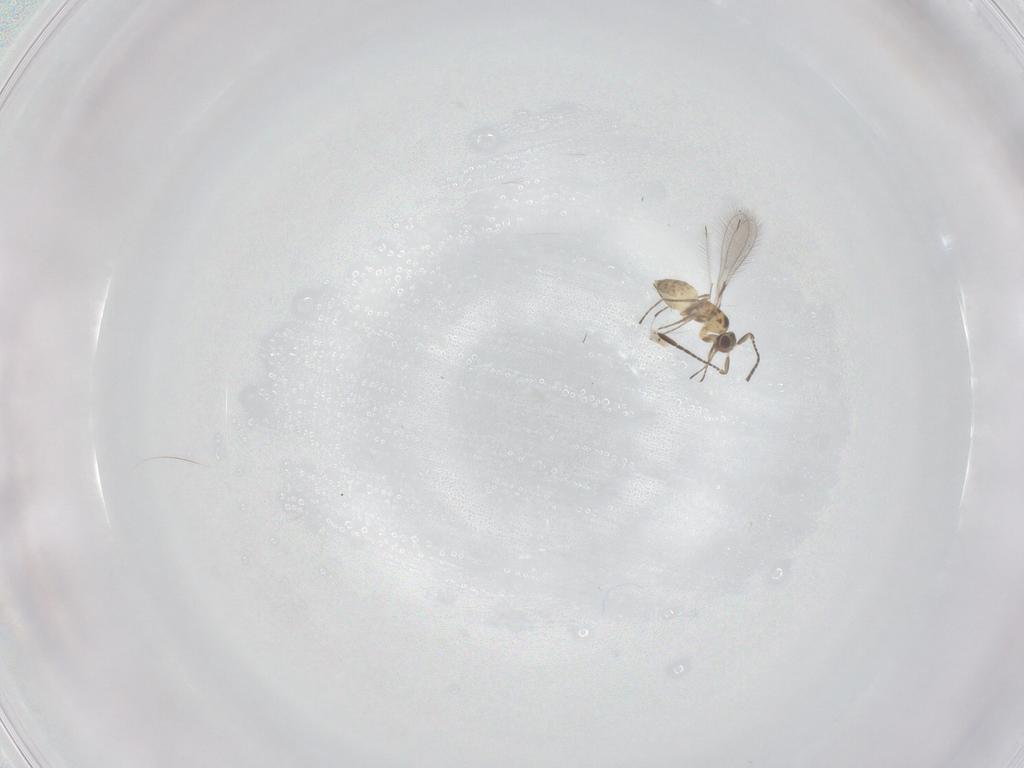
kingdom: Animalia
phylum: Arthropoda
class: Insecta
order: Hymenoptera
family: Mymaridae
